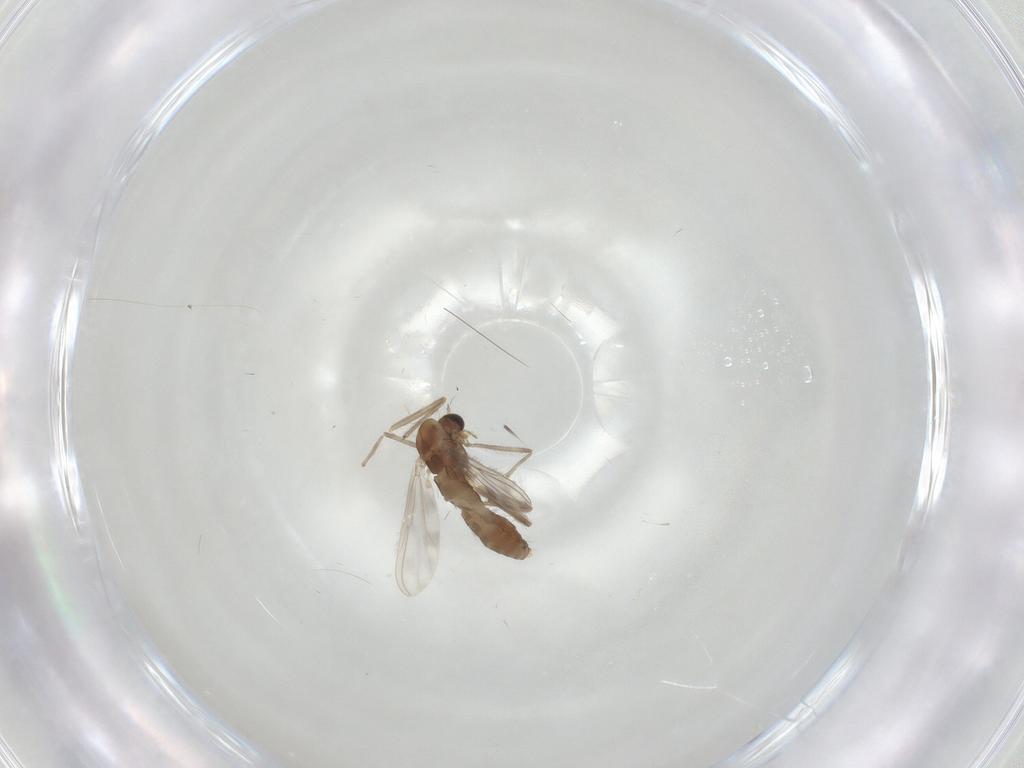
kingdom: Animalia
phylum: Arthropoda
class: Insecta
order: Diptera
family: Chironomidae
